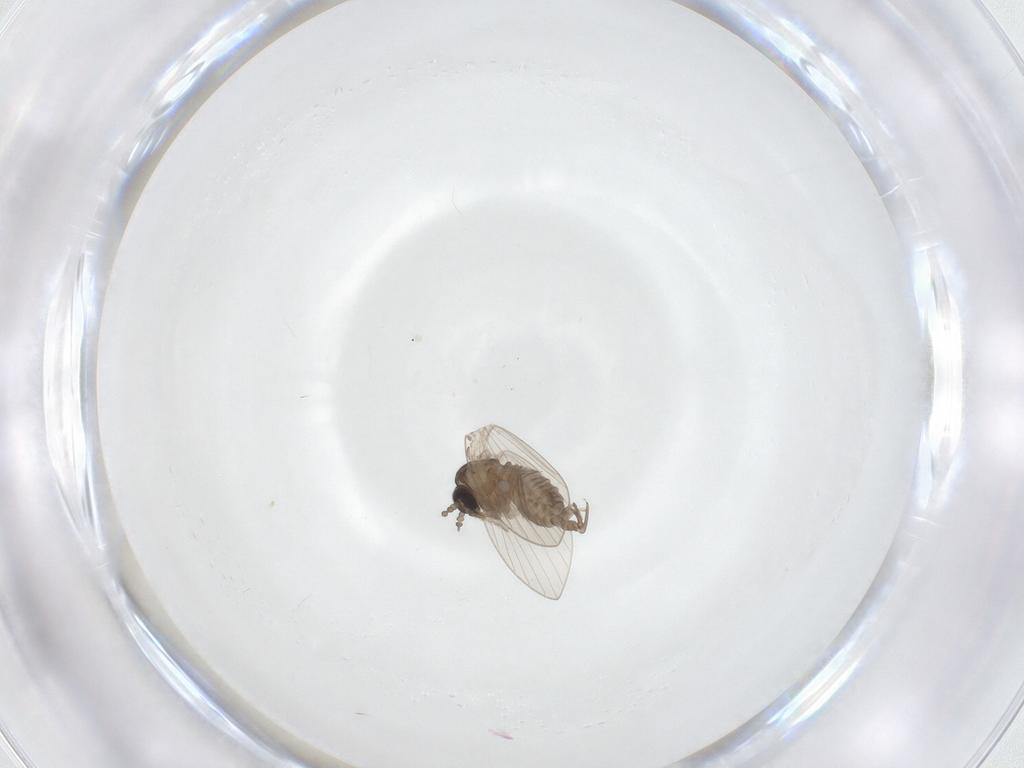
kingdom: Animalia
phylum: Arthropoda
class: Insecta
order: Diptera
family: Psychodidae
